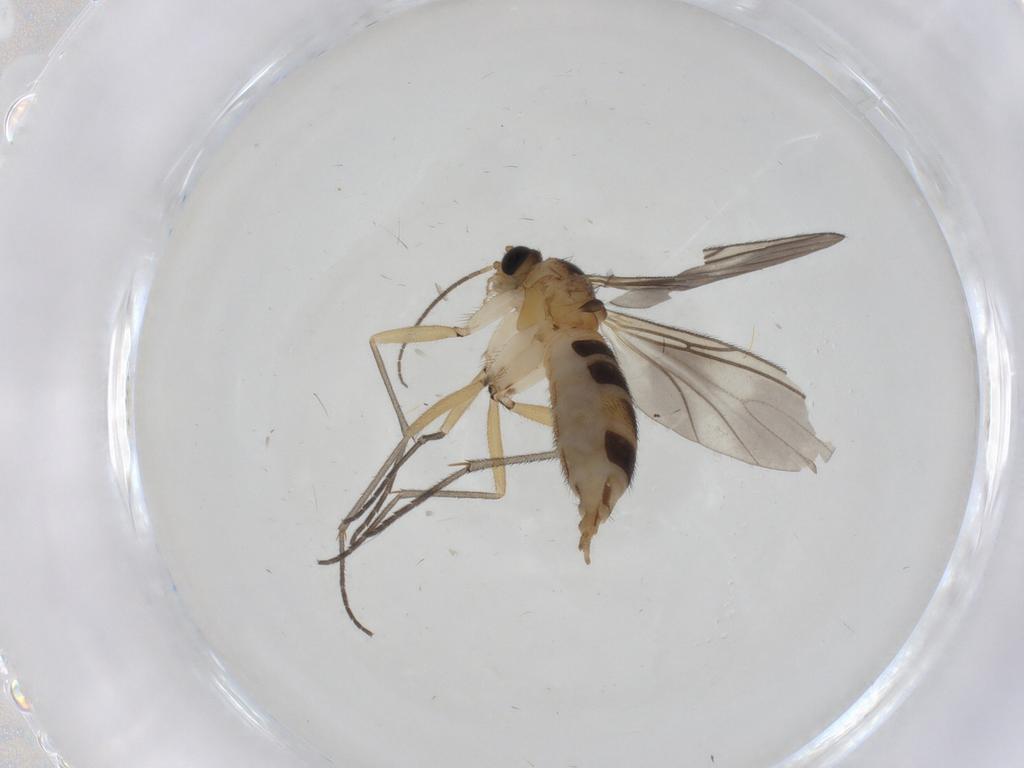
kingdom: Animalia
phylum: Arthropoda
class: Insecta
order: Diptera
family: Sciaridae
